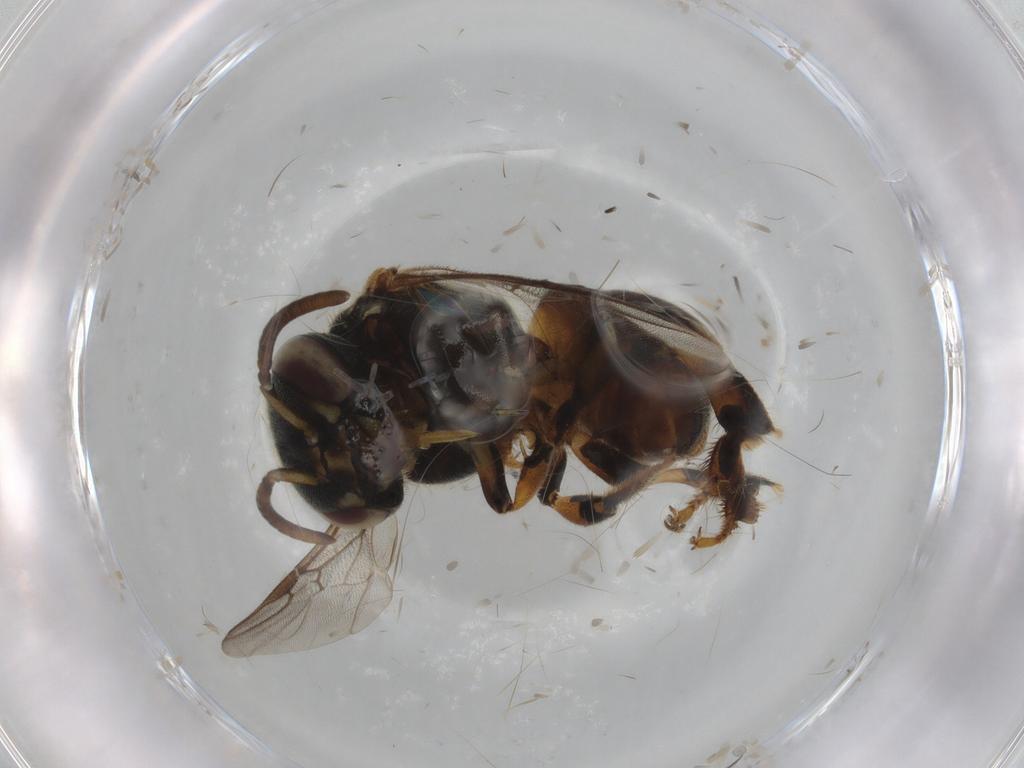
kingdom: Animalia
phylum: Arthropoda
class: Insecta
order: Hymenoptera
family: Apidae
